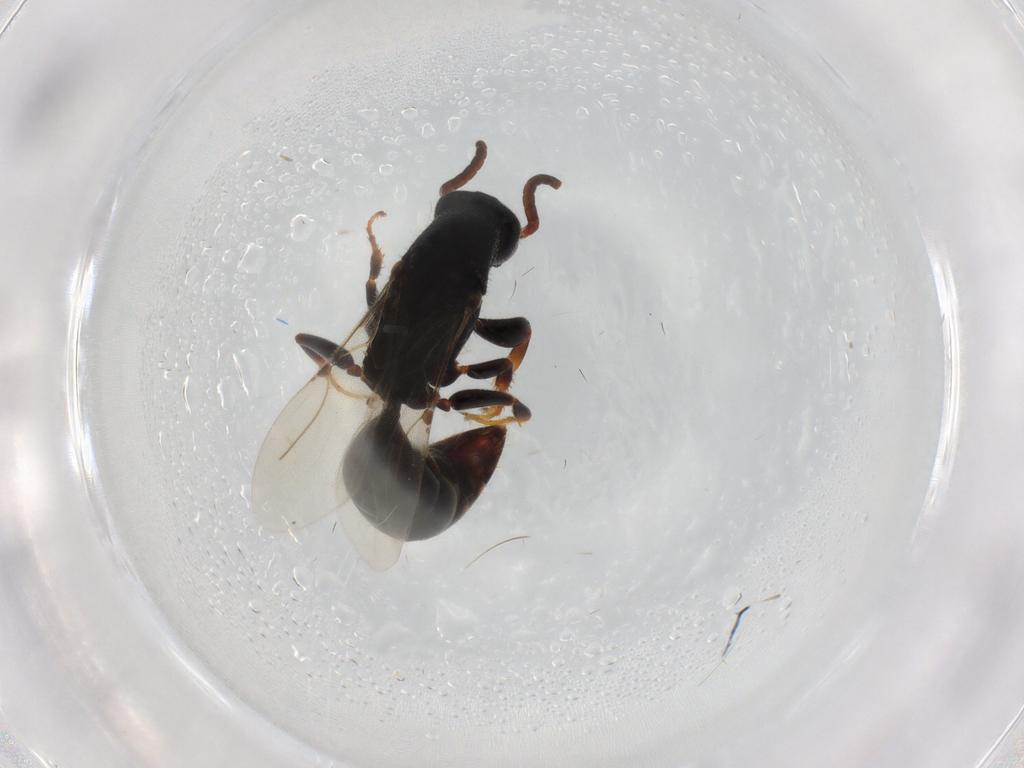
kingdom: Animalia
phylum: Arthropoda
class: Insecta
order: Hymenoptera
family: Bethylidae
